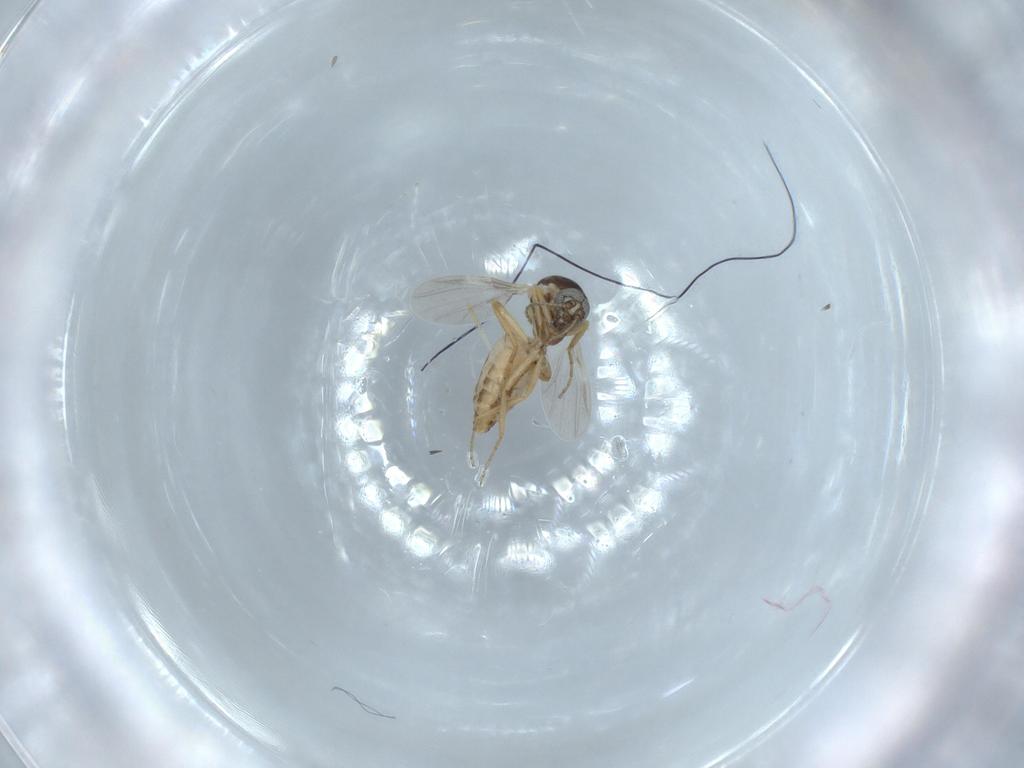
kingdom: Animalia
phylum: Arthropoda
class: Insecta
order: Diptera
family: Ceratopogonidae
